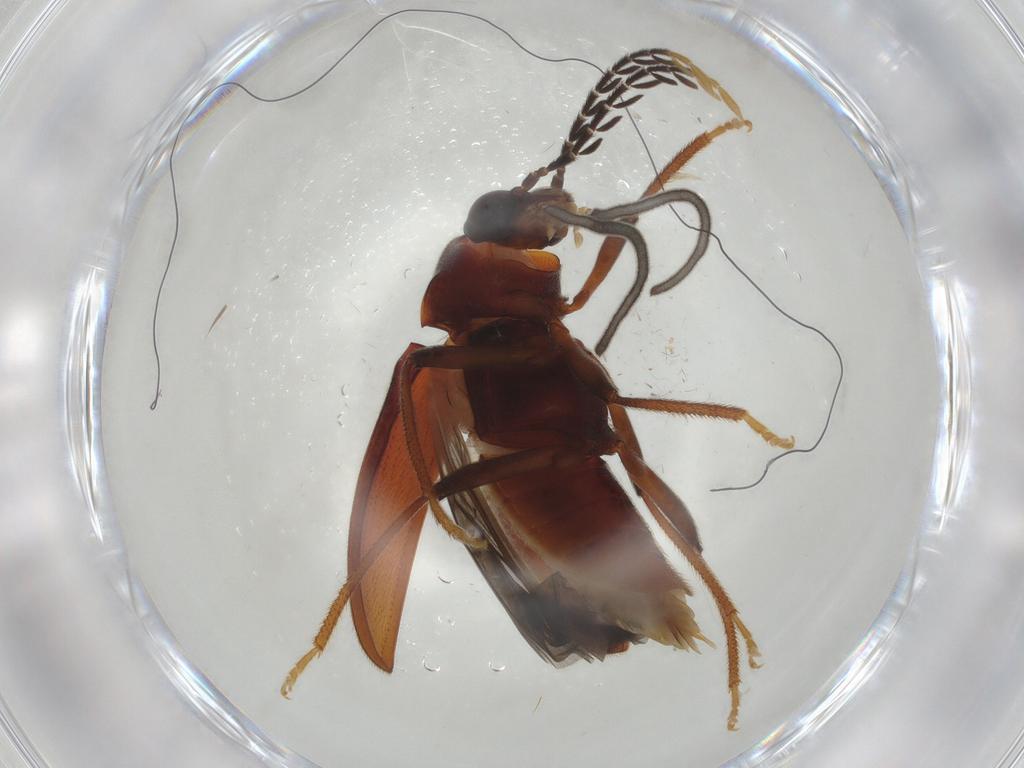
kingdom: Animalia
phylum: Arthropoda
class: Insecta
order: Coleoptera
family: Ptilodactylidae
